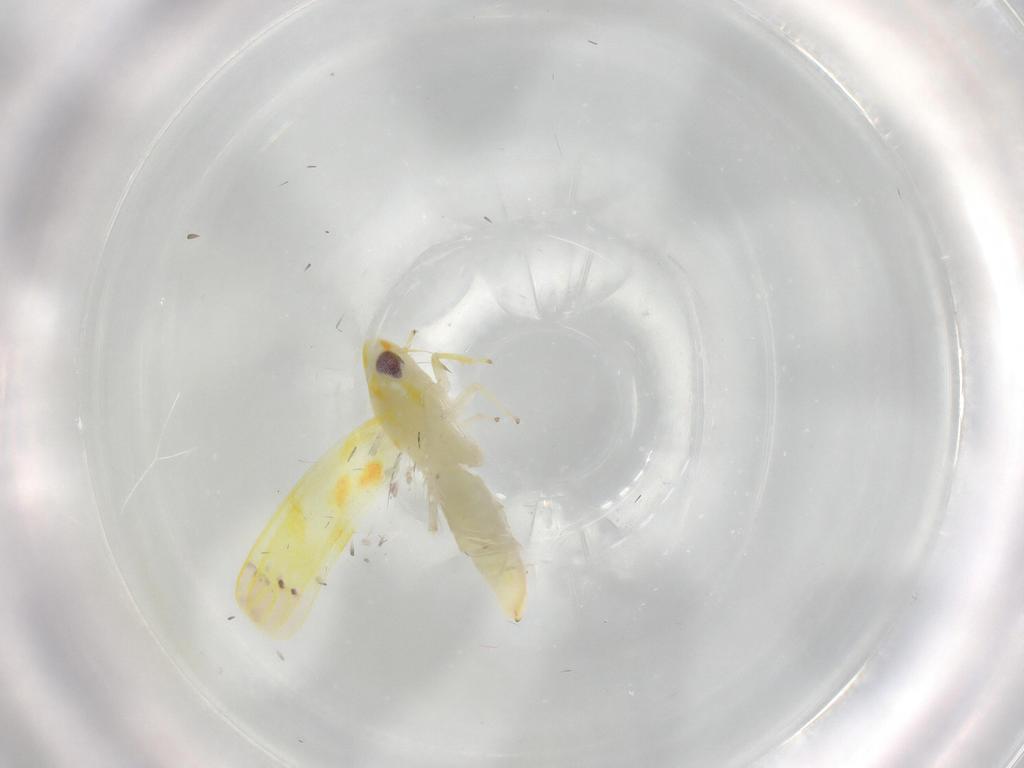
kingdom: Animalia
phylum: Arthropoda
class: Insecta
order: Hemiptera
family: Cicadellidae
